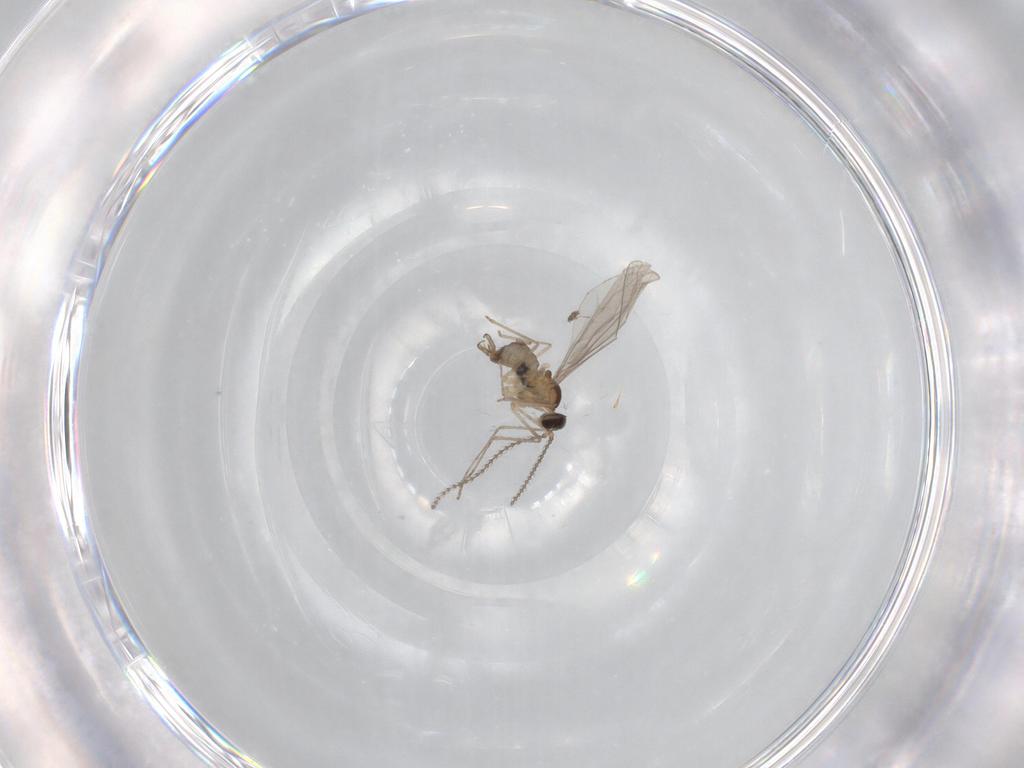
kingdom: Animalia
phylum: Arthropoda
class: Insecta
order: Diptera
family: Cecidomyiidae
